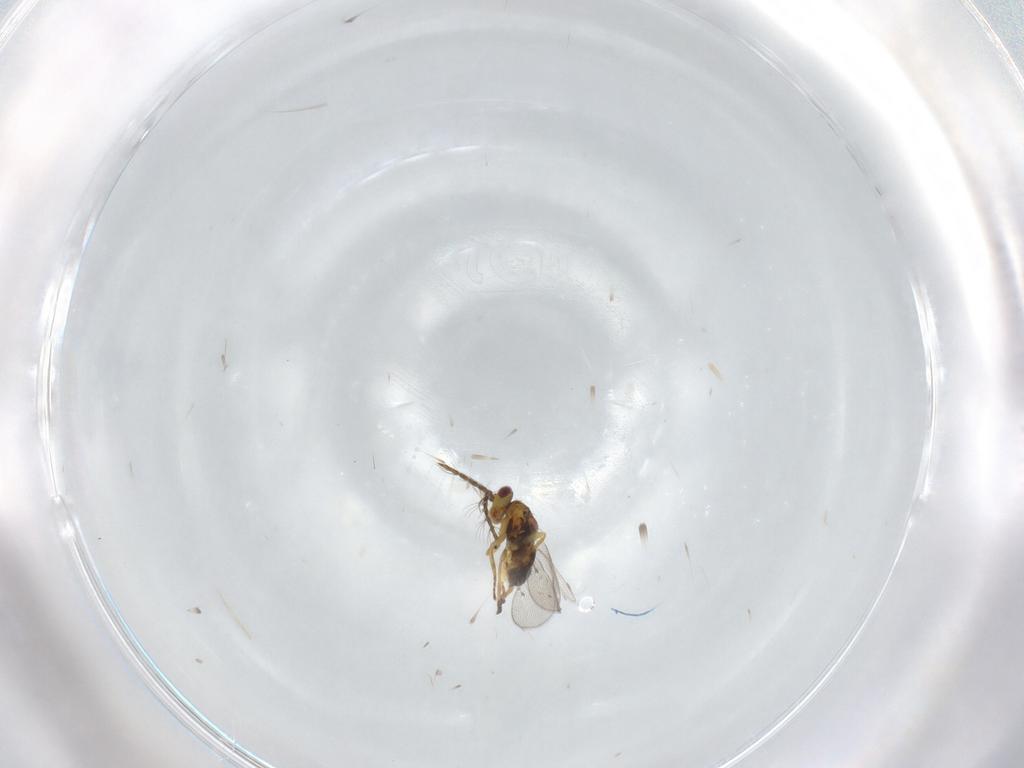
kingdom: Animalia
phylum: Arthropoda
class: Insecta
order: Hymenoptera
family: Eulophidae
